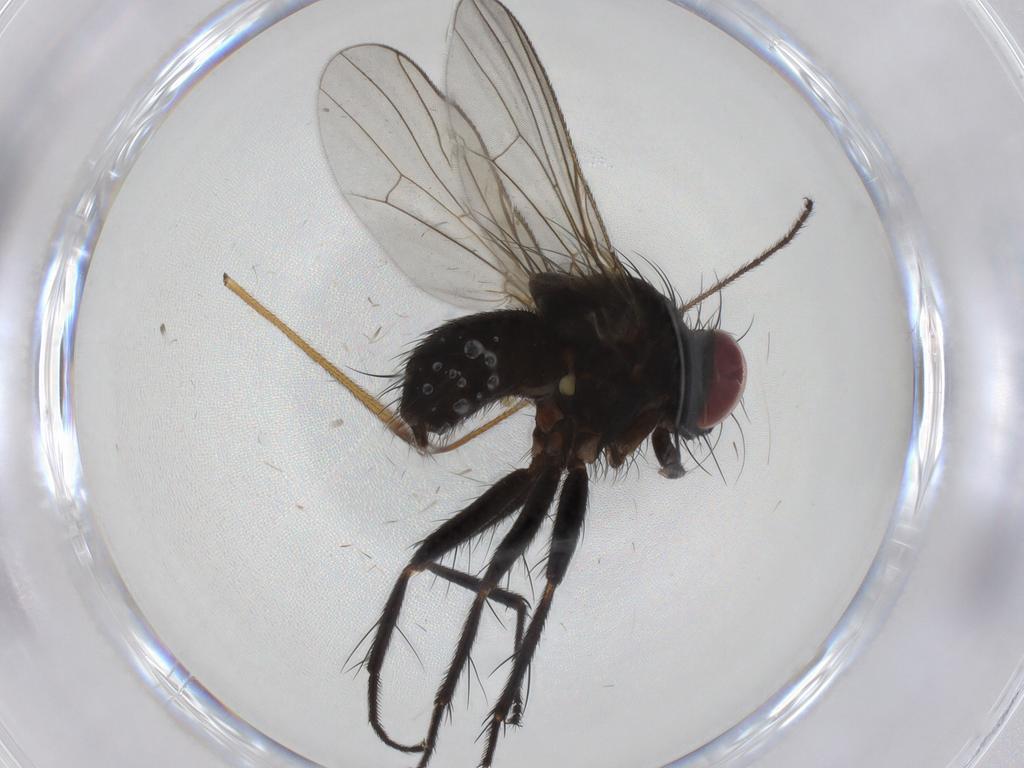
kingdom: Animalia
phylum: Arthropoda
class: Insecta
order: Diptera
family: Muscidae
